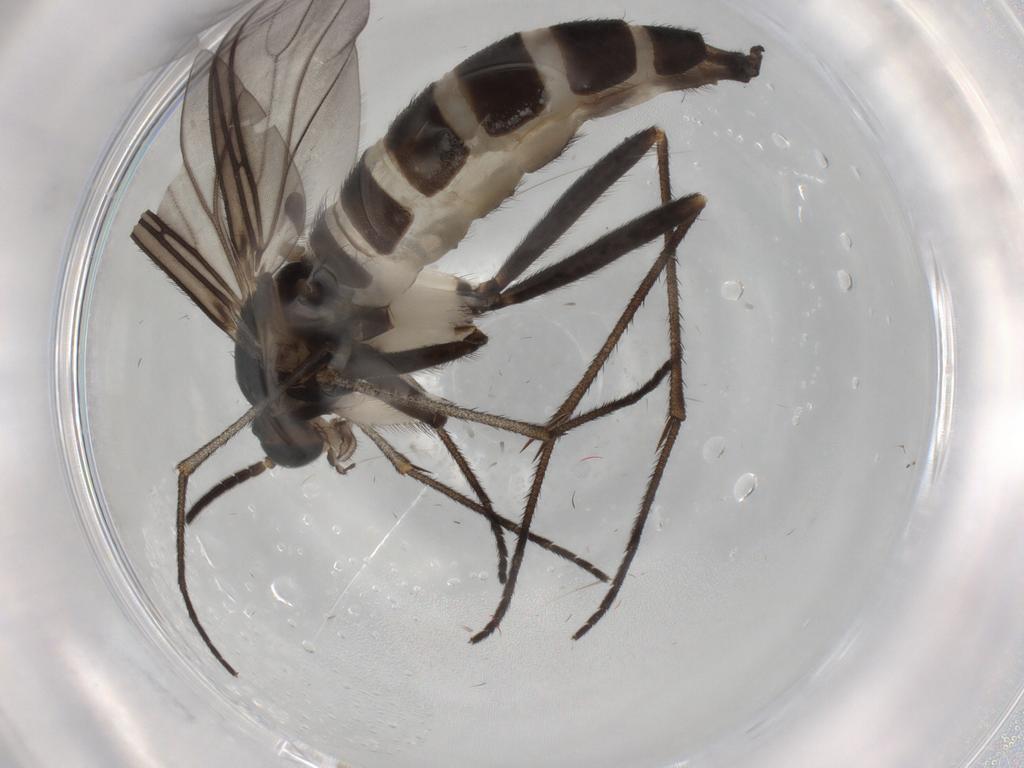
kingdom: Animalia
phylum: Arthropoda
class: Insecta
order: Diptera
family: Sciaridae
